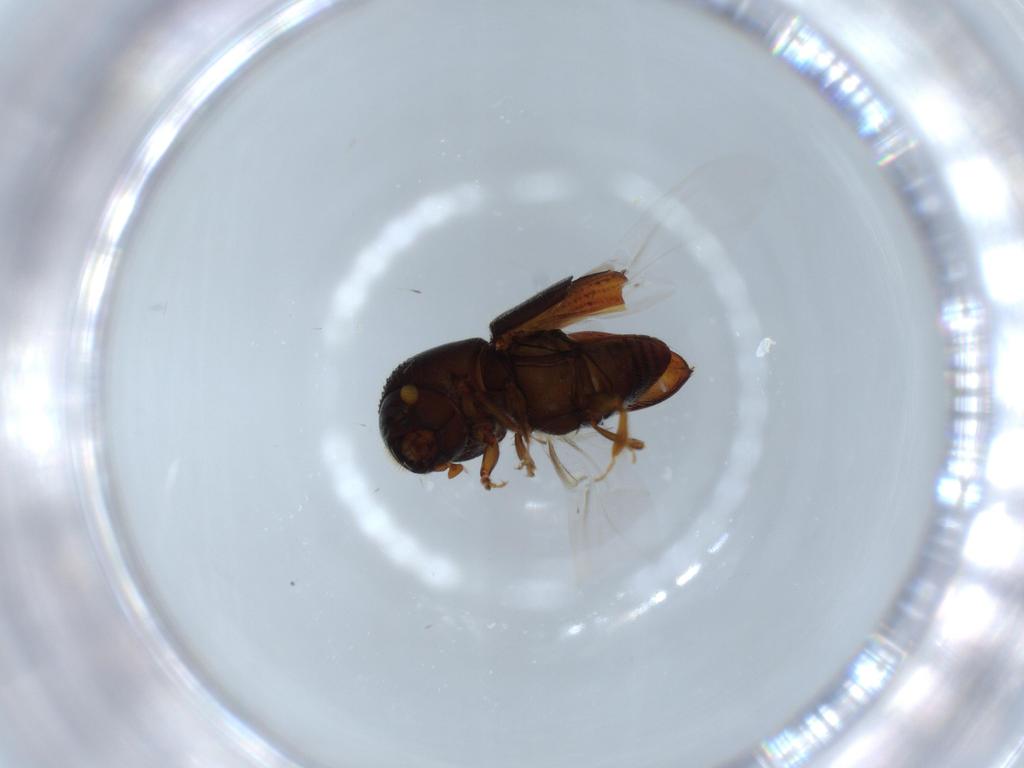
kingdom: Animalia
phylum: Arthropoda
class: Insecta
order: Coleoptera
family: Curculionidae
